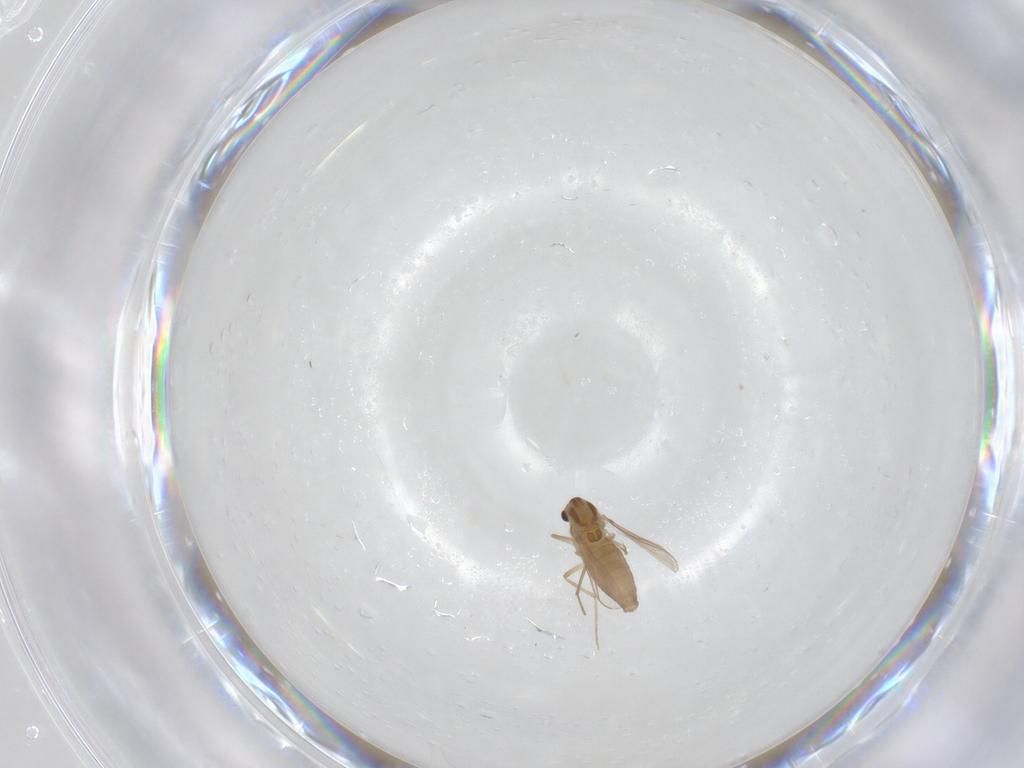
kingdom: Animalia
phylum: Arthropoda
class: Insecta
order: Diptera
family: Chironomidae
